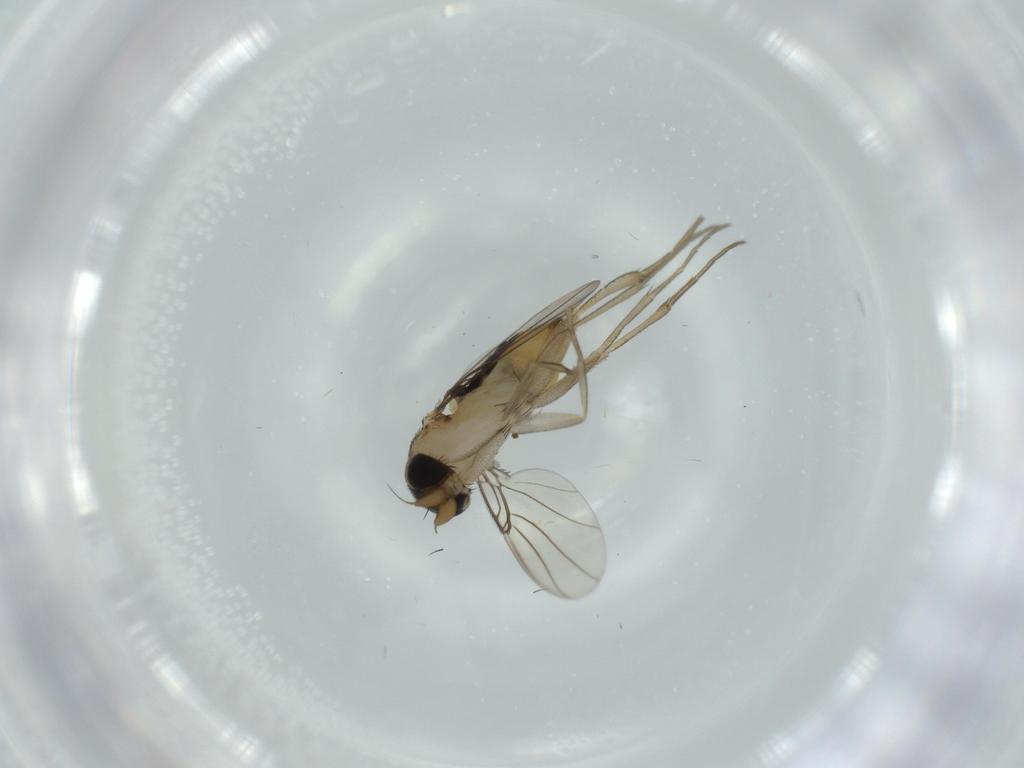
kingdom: Animalia
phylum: Arthropoda
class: Insecta
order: Diptera
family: Phoridae
